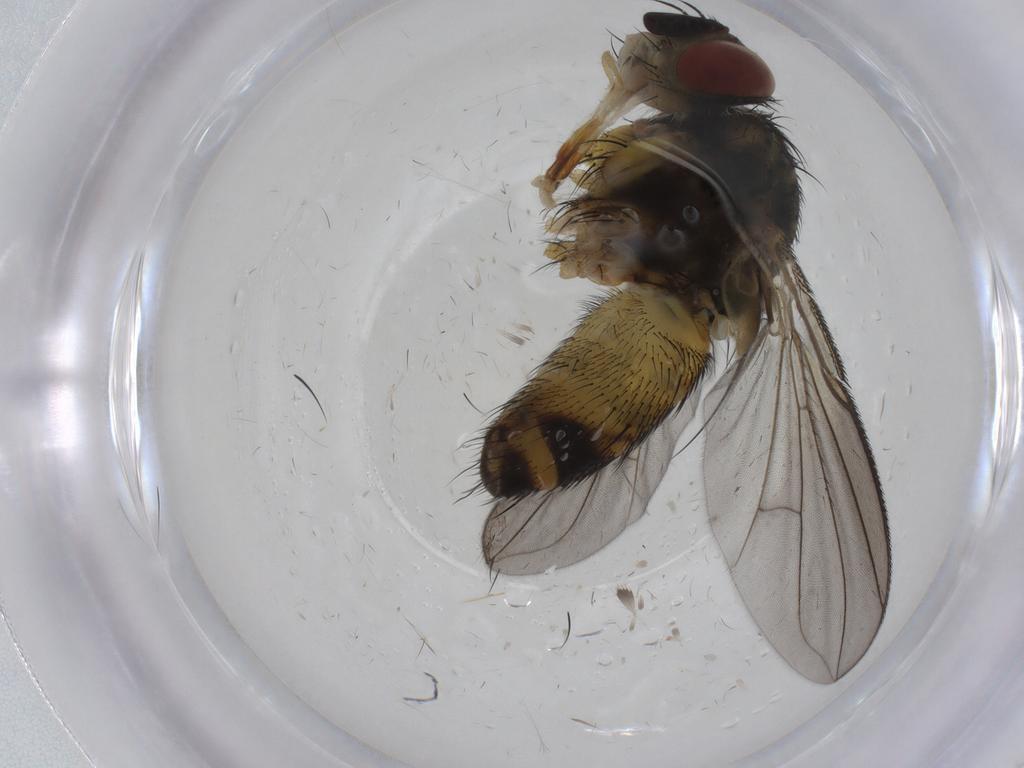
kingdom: Animalia
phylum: Arthropoda
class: Insecta
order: Diptera
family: Tachinidae
